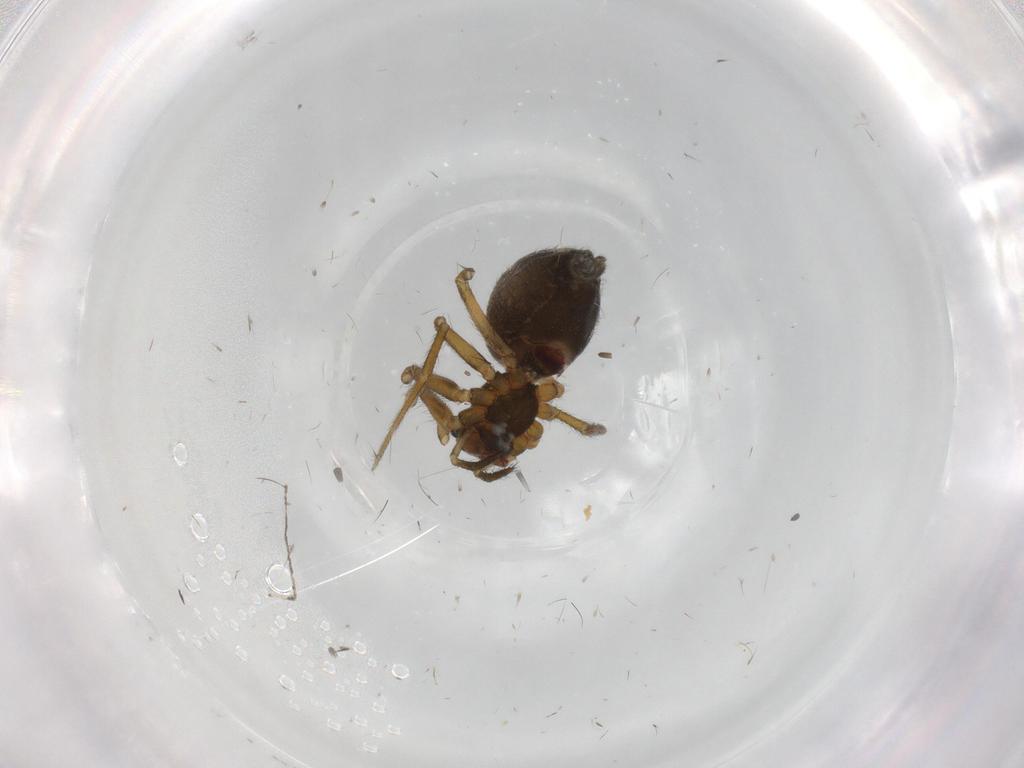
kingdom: Animalia
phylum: Arthropoda
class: Arachnida
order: Araneae
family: Linyphiidae
